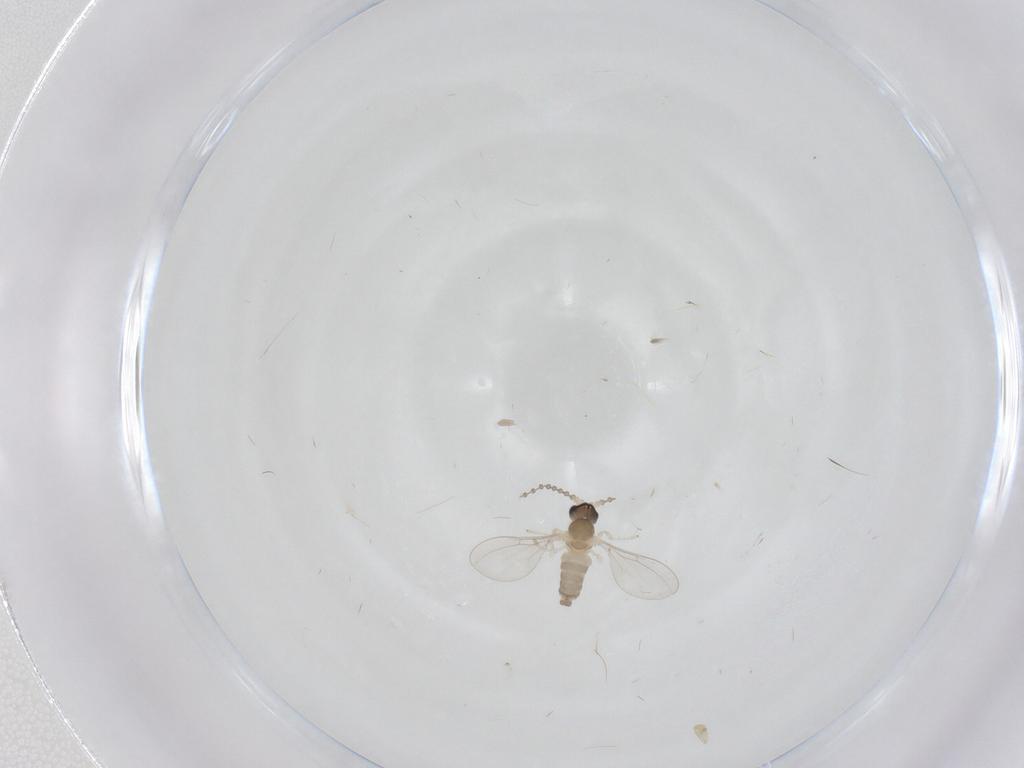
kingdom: Animalia
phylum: Arthropoda
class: Insecta
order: Diptera
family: Cecidomyiidae
